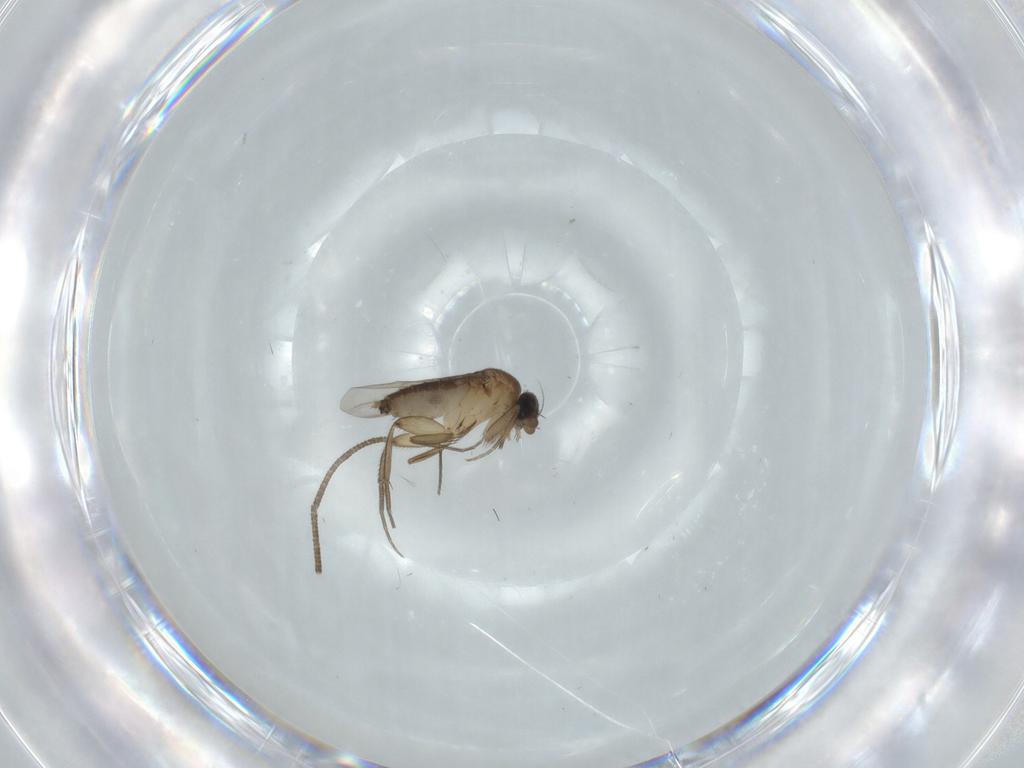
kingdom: Animalia
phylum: Arthropoda
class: Insecta
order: Diptera
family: Phoridae
